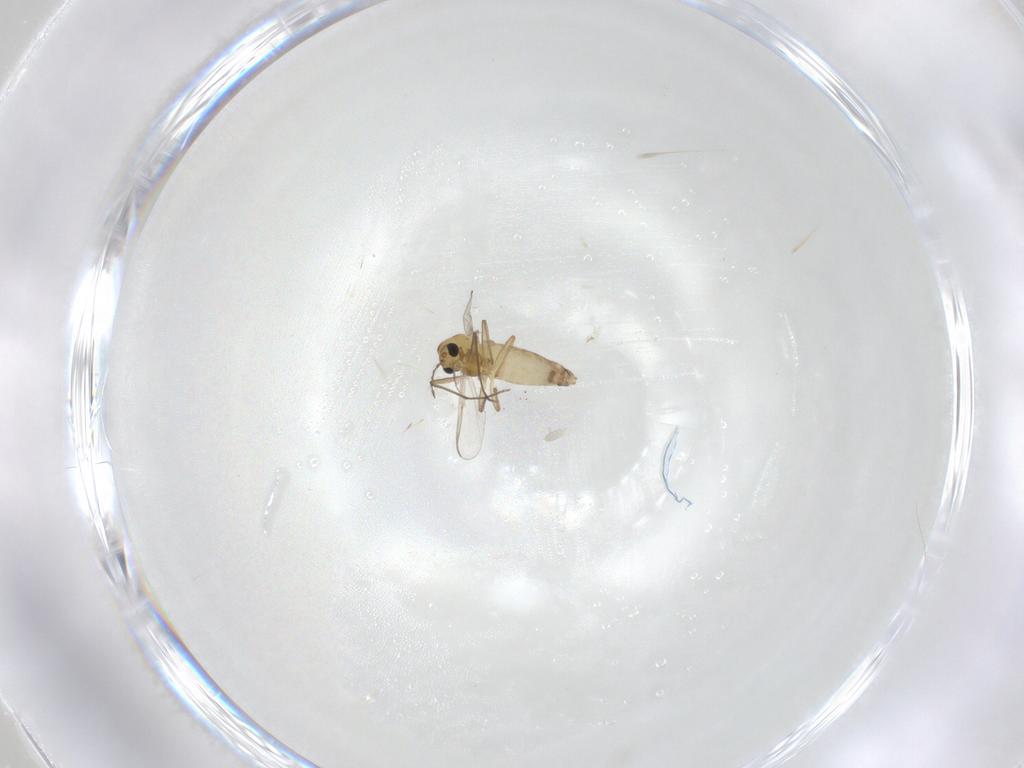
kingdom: Animalia
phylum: Arthropoda
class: Insecta
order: Diptera
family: Chironomidae
